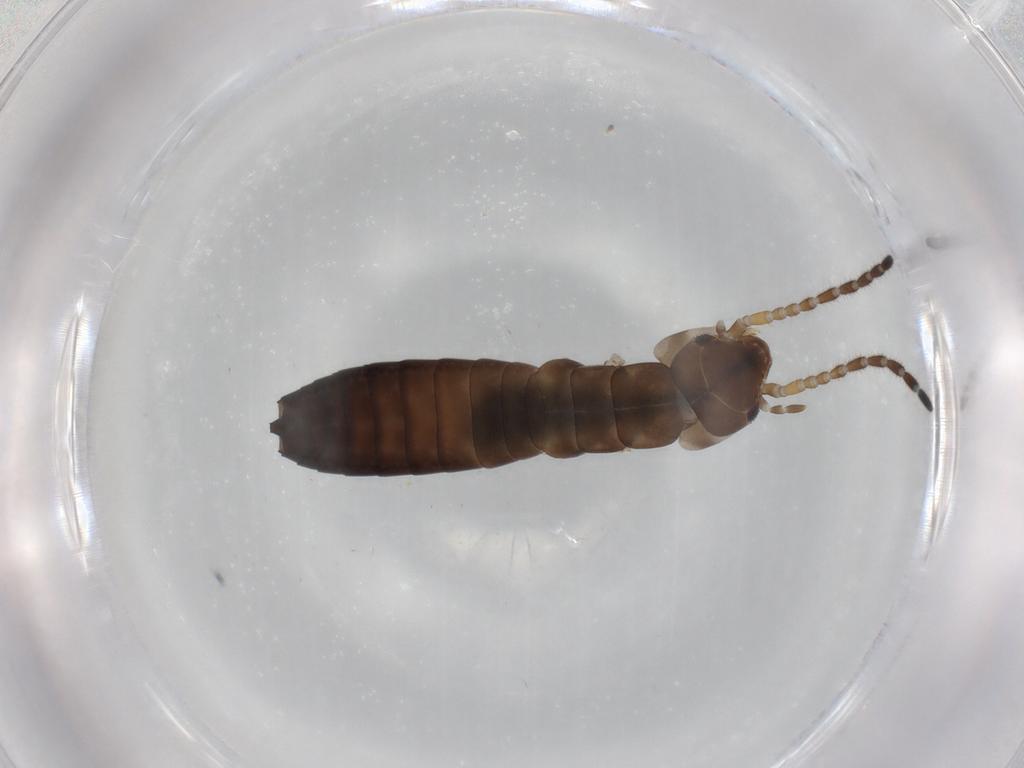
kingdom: Animalia
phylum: Arthropoda
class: Insecta
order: Dermaptera
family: Labiduridae
